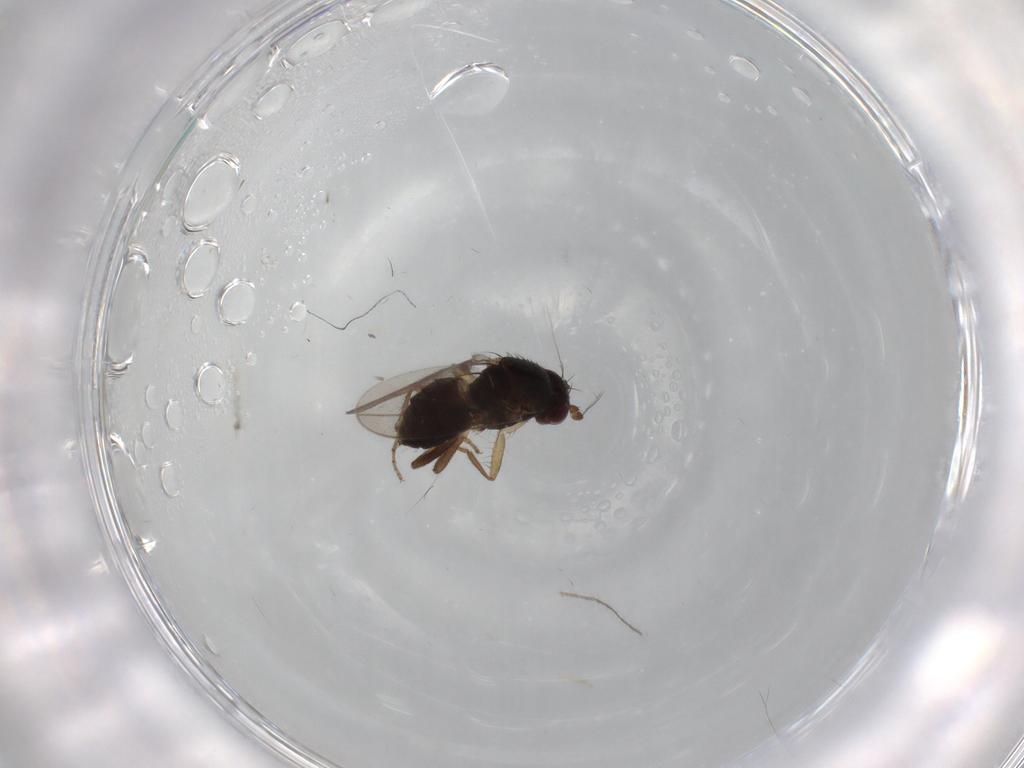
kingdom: Animalia
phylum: Arthropoda
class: Insecta
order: Diptera
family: Sphaeroceridae
